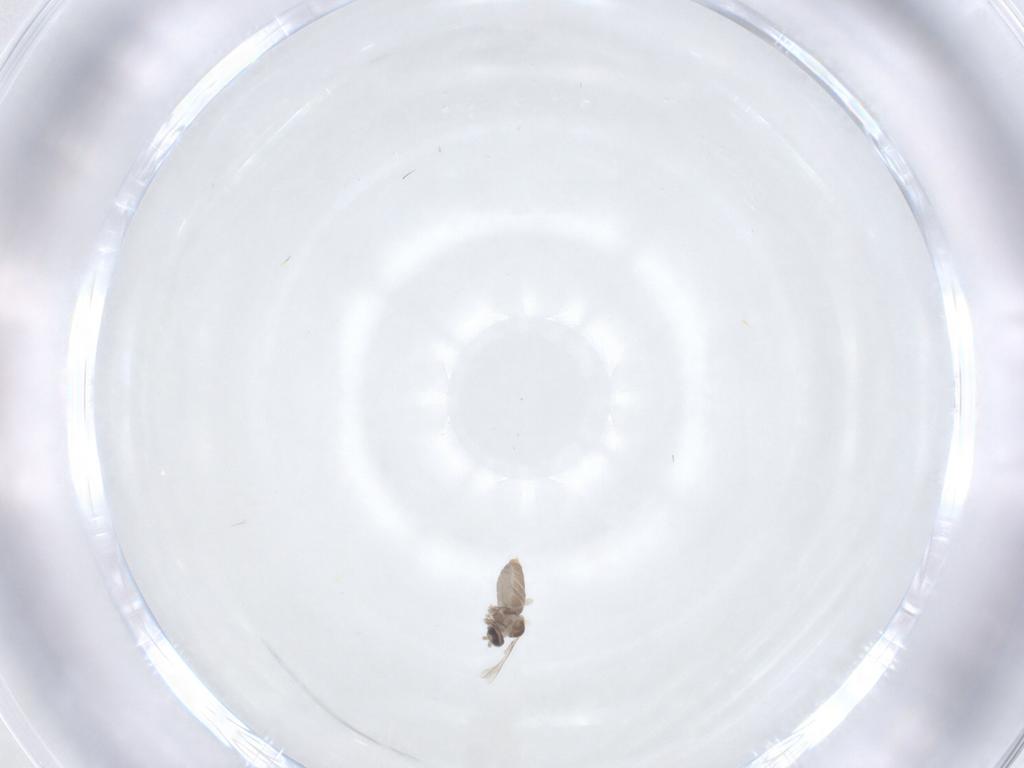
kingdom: Animalia
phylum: Arthropoda
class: Insecta
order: Diptera
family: Cecidomyiidae
